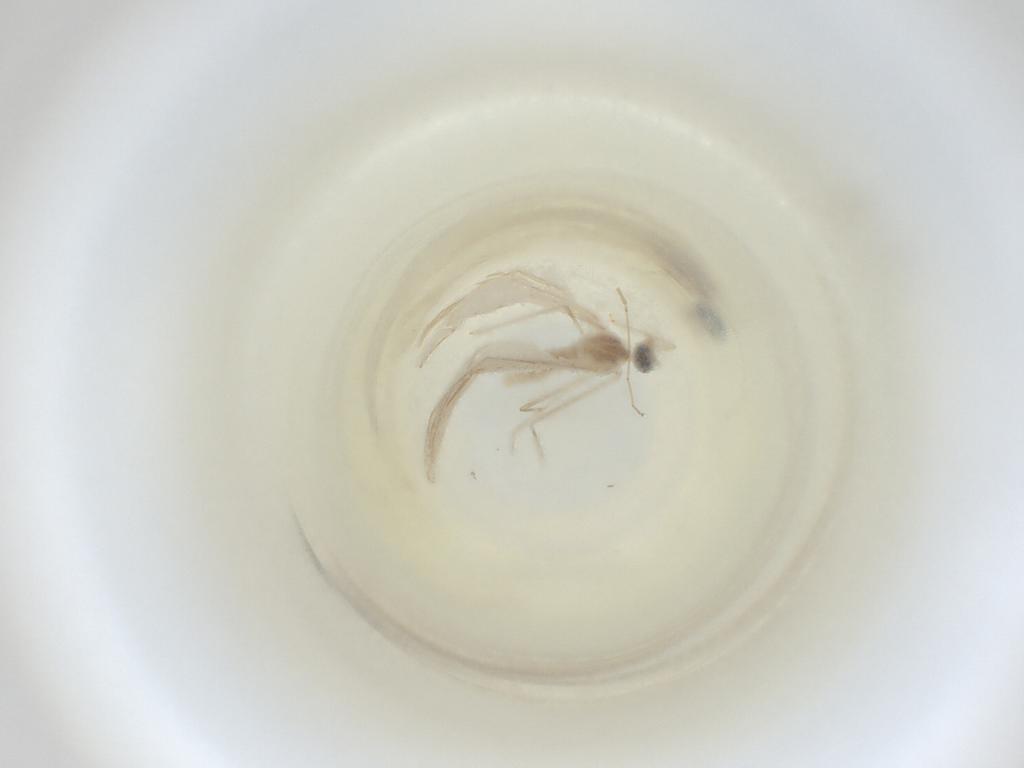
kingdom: Animalia
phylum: Arthropoda
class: Insecta
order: Diptera
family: Cecidomyiidae
